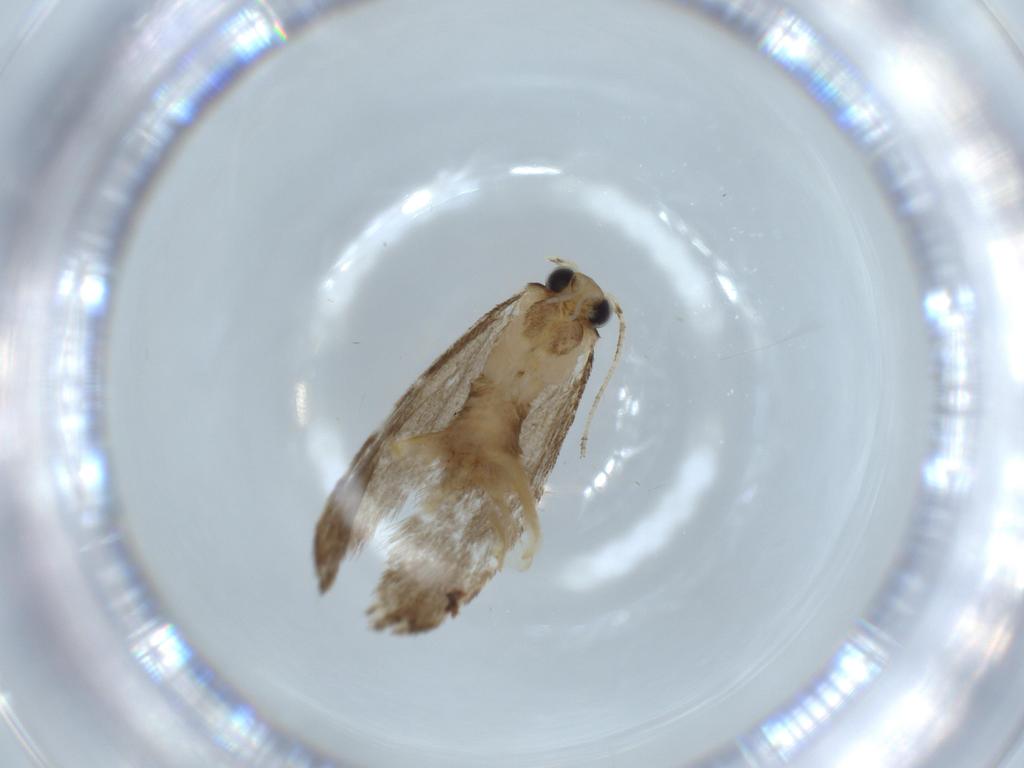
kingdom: Animalia
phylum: Arthropoda
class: Insecta
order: Lepidoptera
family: Tineidae
